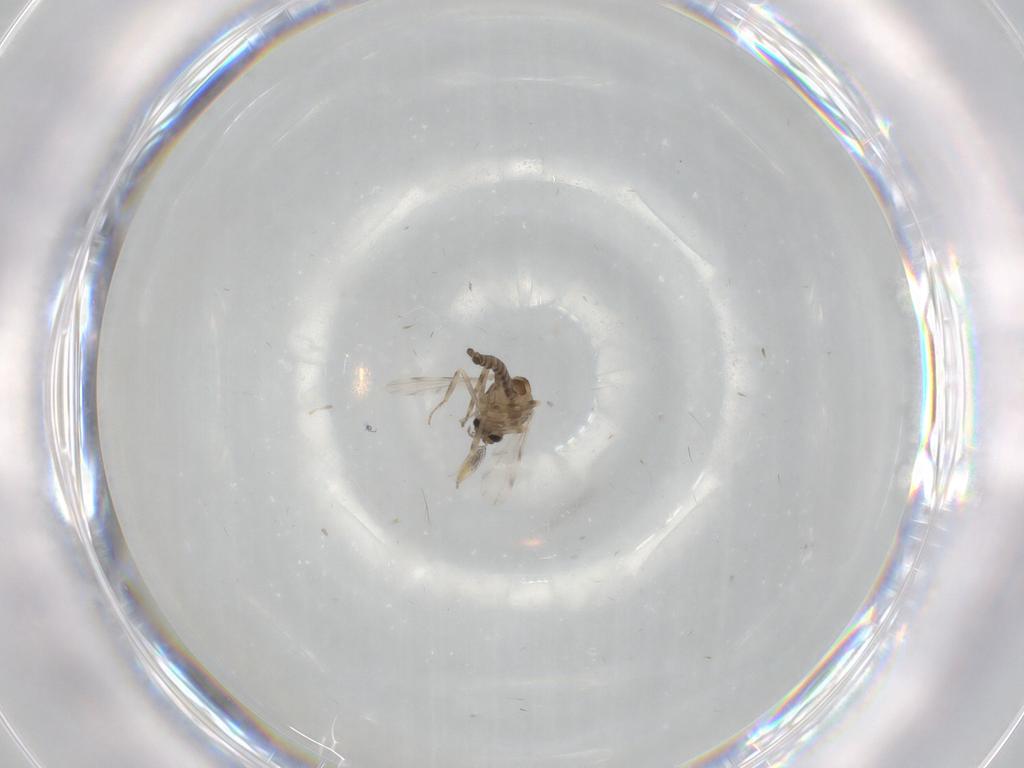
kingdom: Animalia
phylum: Arthropoda
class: Insecta
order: Diptera
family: Ceratopogonidae
